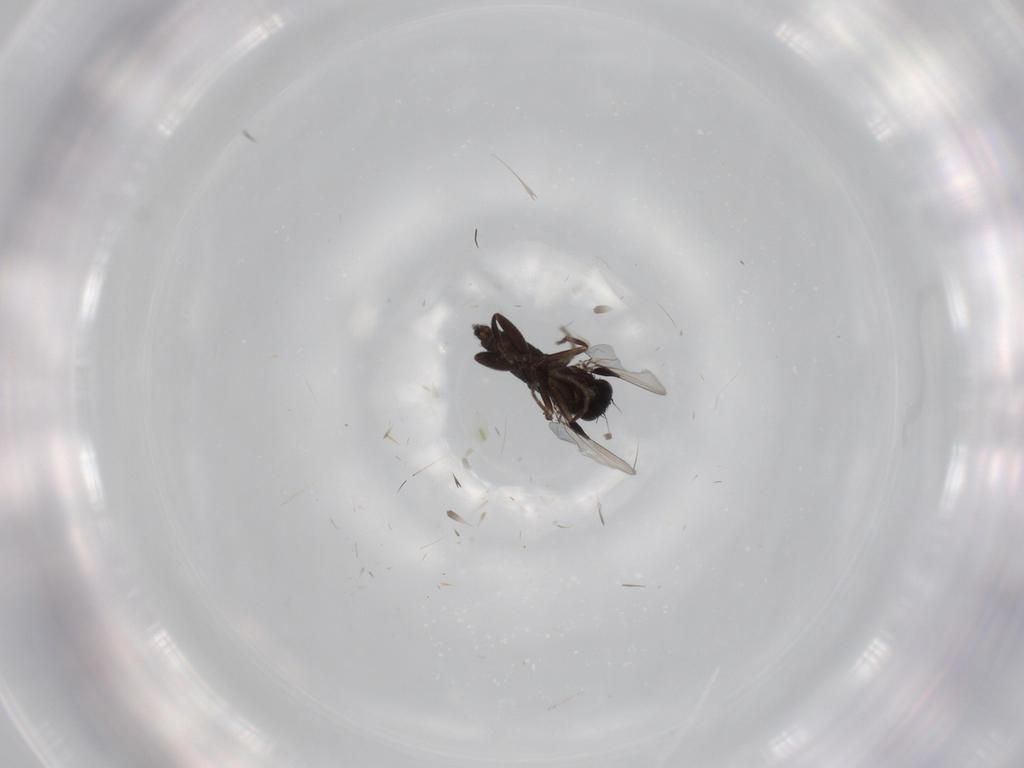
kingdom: Animalia
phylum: Arthropoda
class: Insecta
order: Diptera
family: Phoridae
